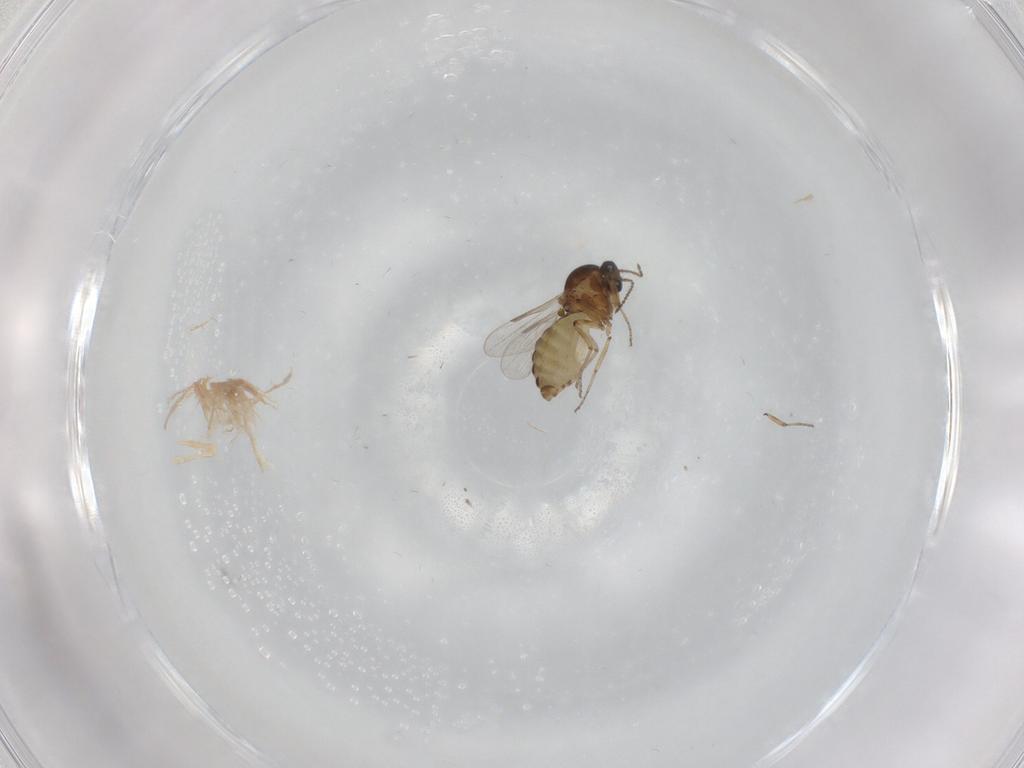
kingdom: Animalia
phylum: Arthropoda
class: Insecta
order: Diptera
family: Ceratopogonidae
